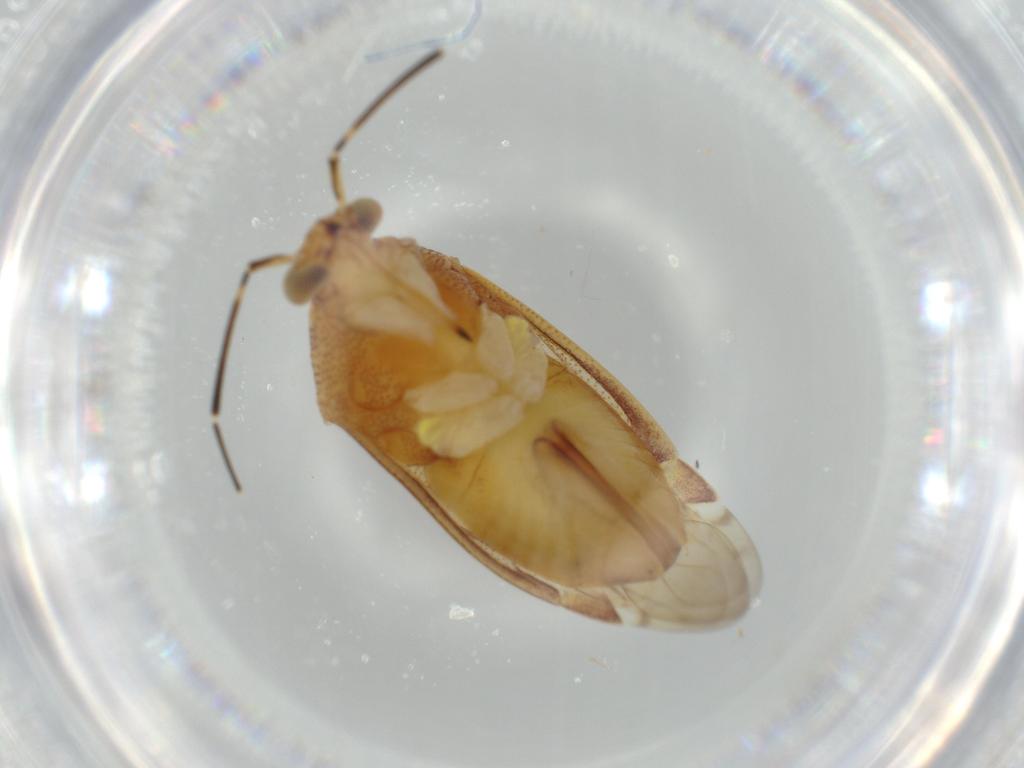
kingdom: Animalia
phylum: Arthropoda
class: Insecta
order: Hemiptera
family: Miridae
